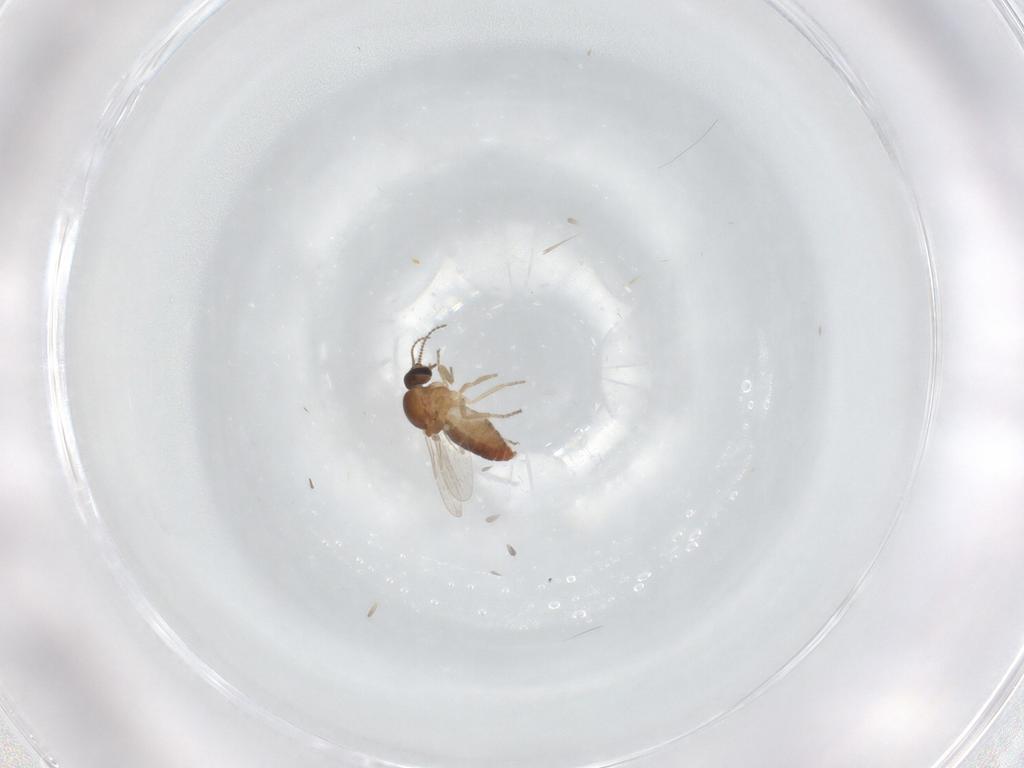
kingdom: Animalia
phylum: Arthropoda
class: Insecta
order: Diptera
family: Ceratopogonidae
